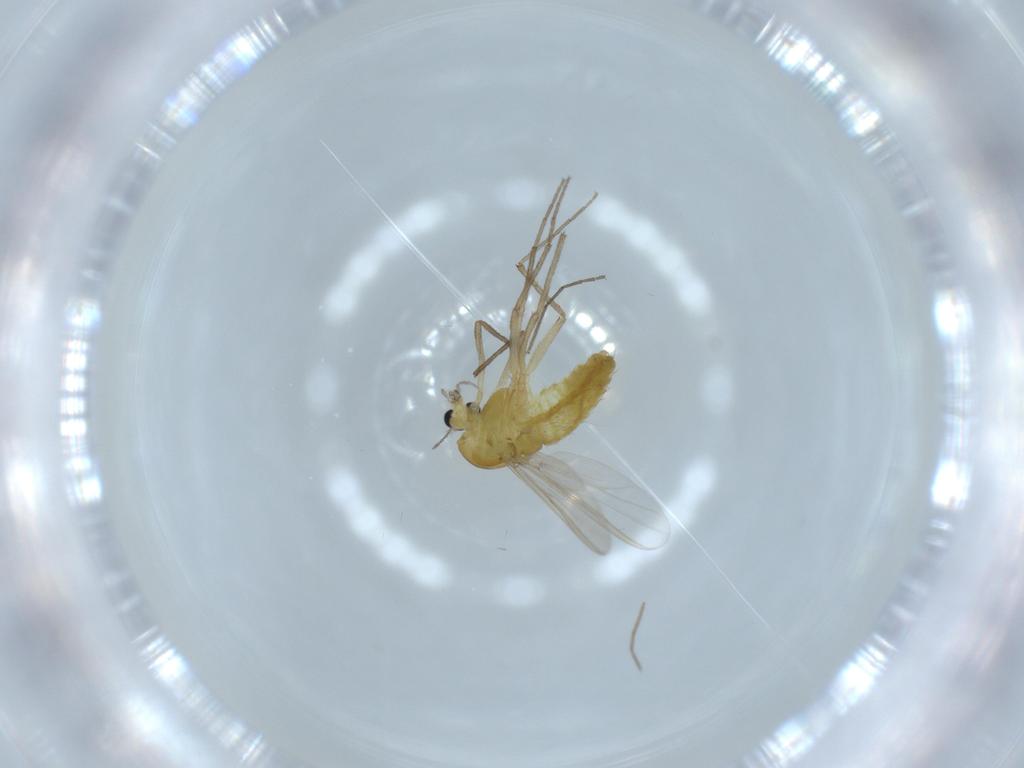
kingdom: Animalia
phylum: Arthropoda
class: Insecta
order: Diptera
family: Chironomidae
